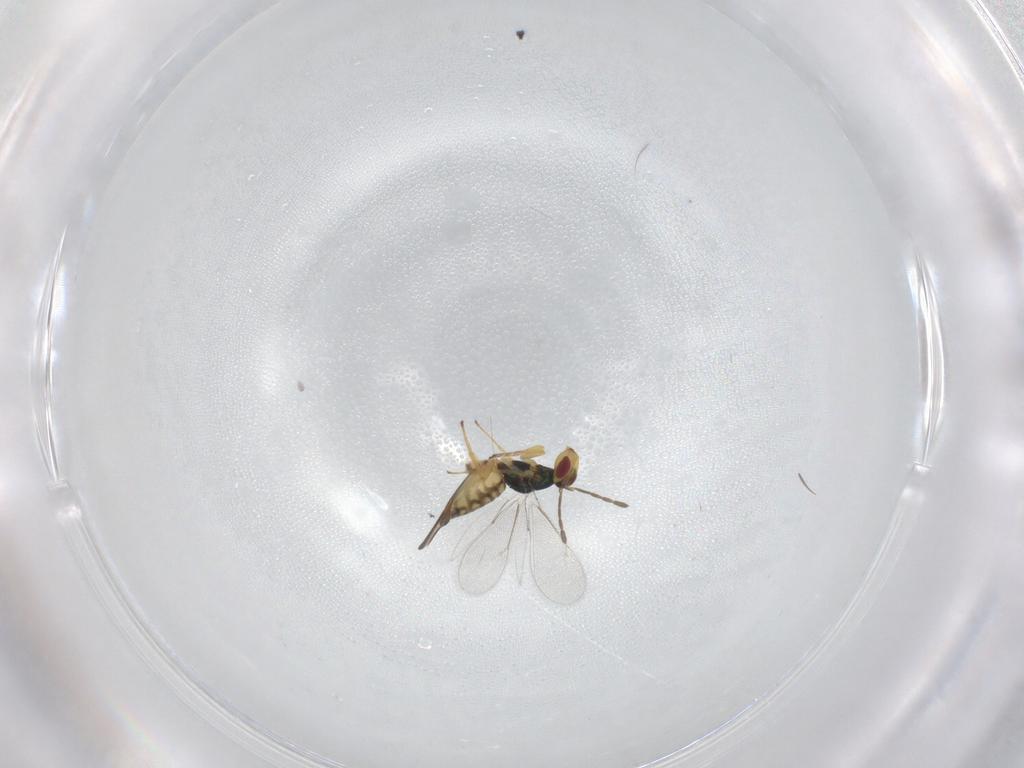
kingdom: Animalia
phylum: Arthropoda
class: Insecta
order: Hymenoptera
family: Eulophidae
